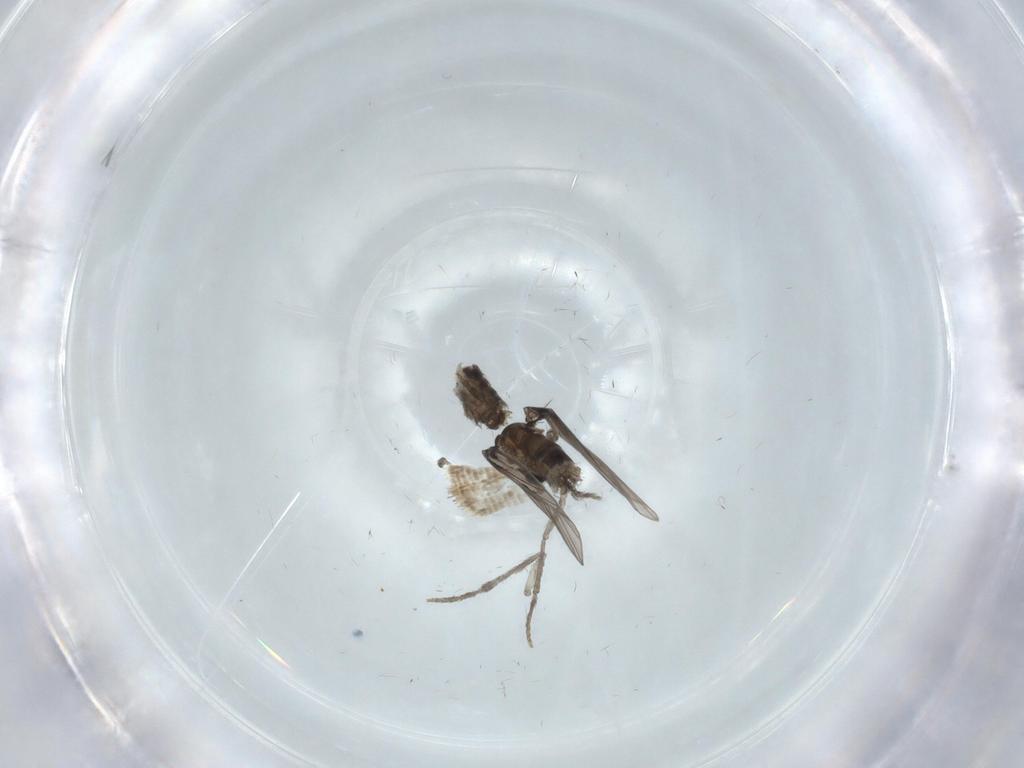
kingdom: Animalia
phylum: Arthropoda
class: Insecta
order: Diptera
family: Psychodidae
